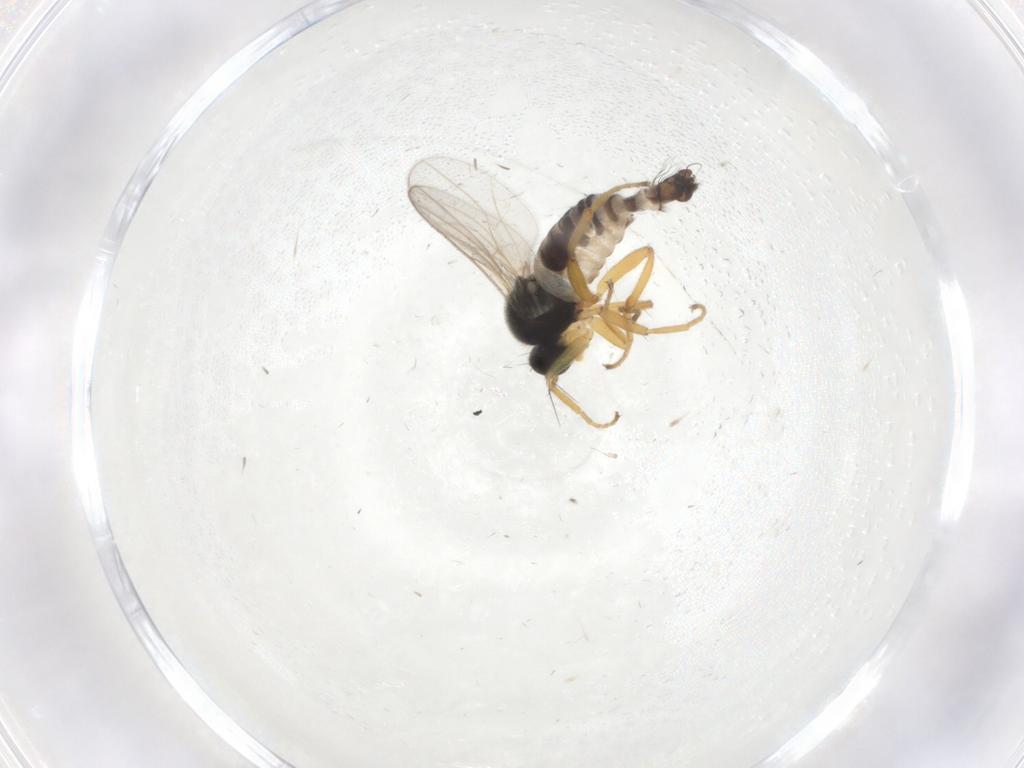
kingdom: Animalia
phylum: Arthropoda
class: Insecta
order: Diptera
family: Hybotidae
